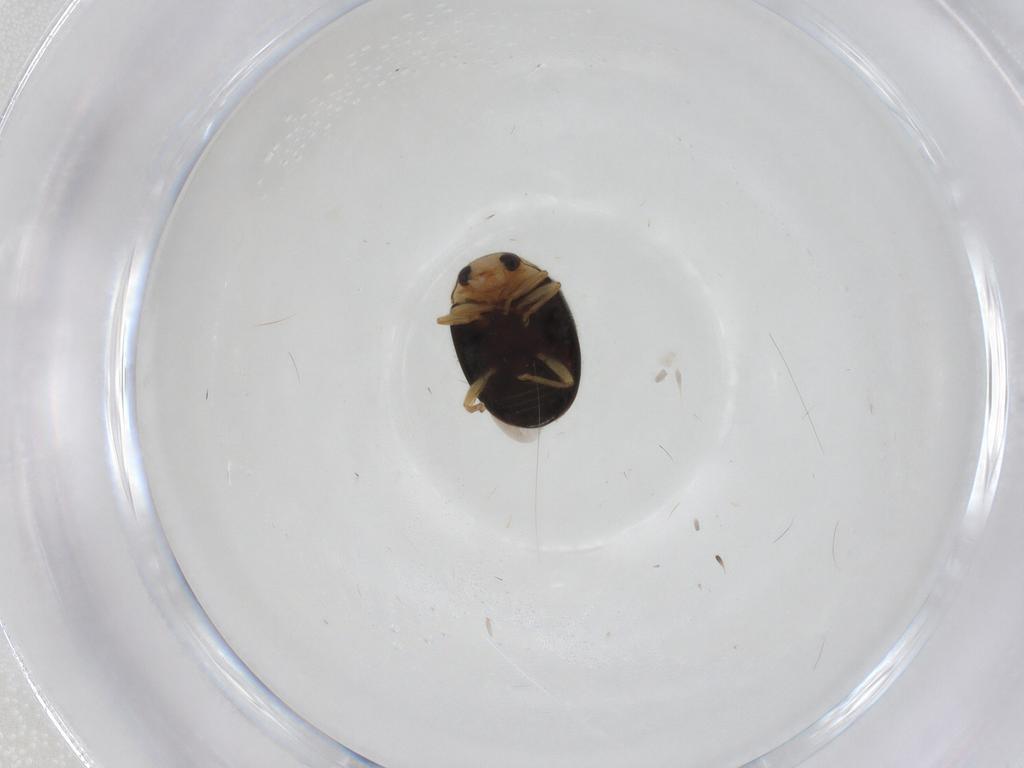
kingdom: Animalia
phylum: Arthropoda
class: Insecta
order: Coleoptera
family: Coccinellidae
